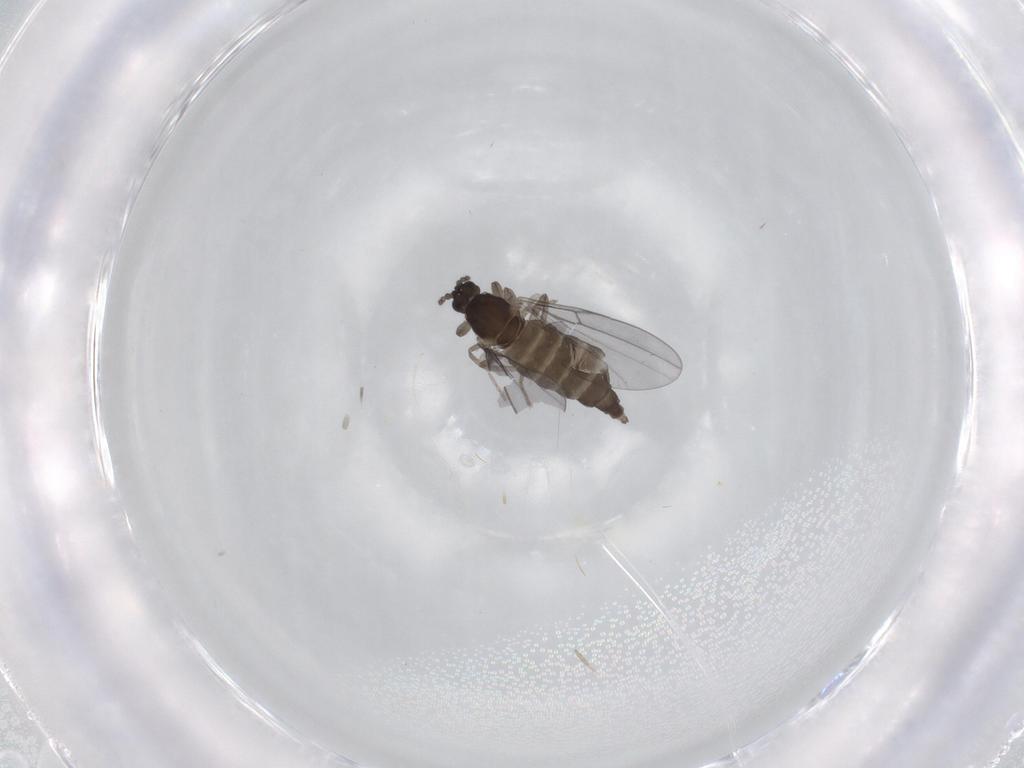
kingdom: Animalia
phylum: Arthropoda
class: Insecta
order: Diptera
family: Cecidomyiidae
